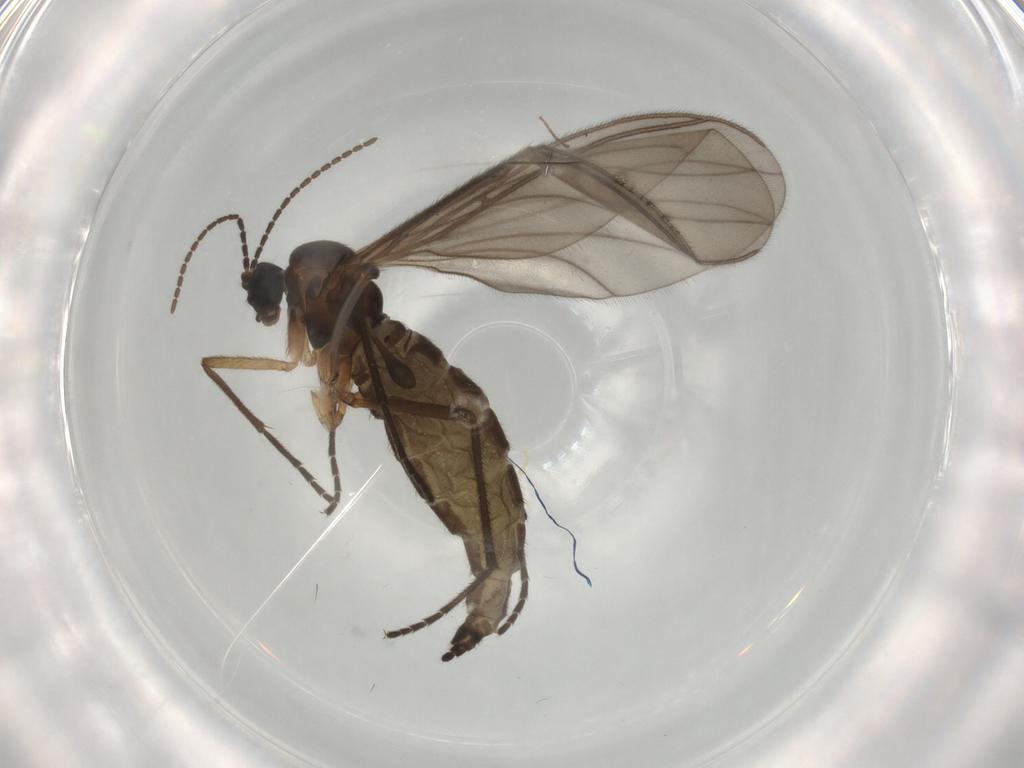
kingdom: Animalia
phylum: Arthropoda
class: Insecta
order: Diptera
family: Sciaridae
